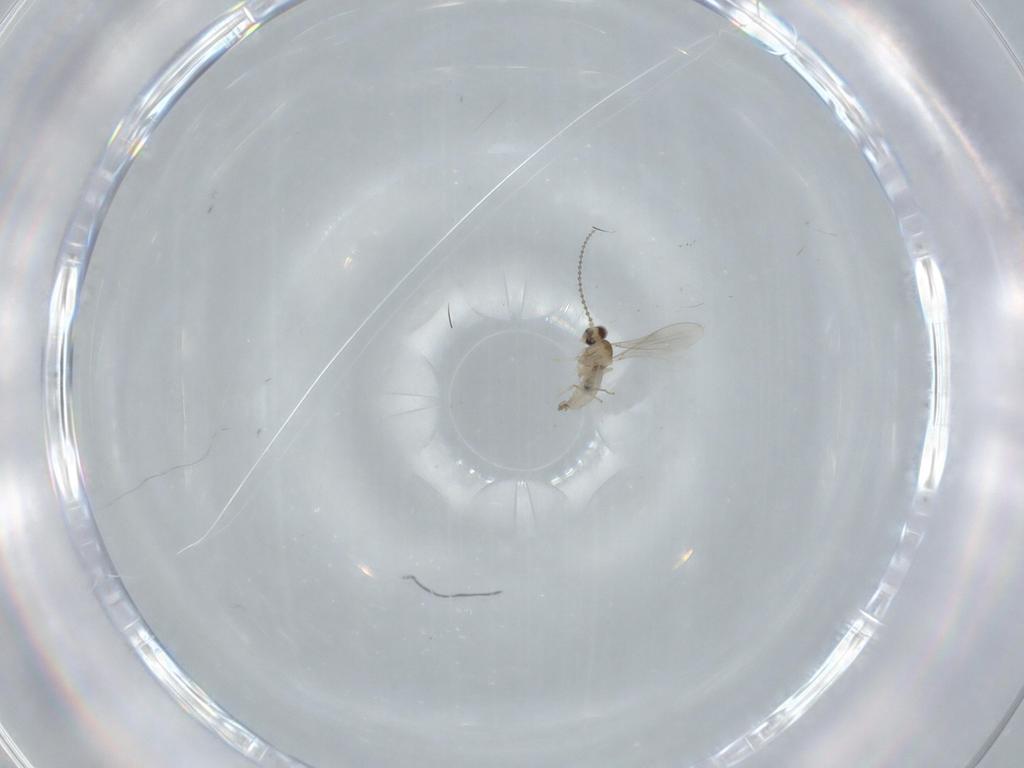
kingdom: Animalia
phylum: Arthropoda
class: Insecta
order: Diptera
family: Cecidomyiidae
